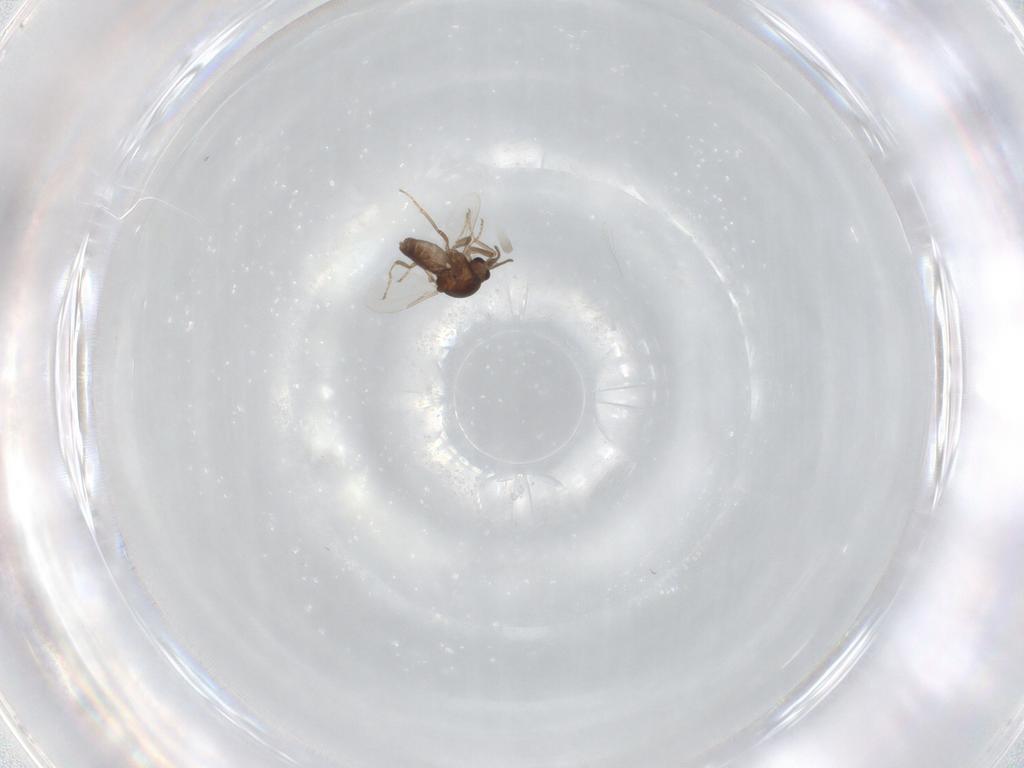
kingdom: Animalia
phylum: Arthropoda
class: Insecta
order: Diptera
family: Ceratopogonidae
